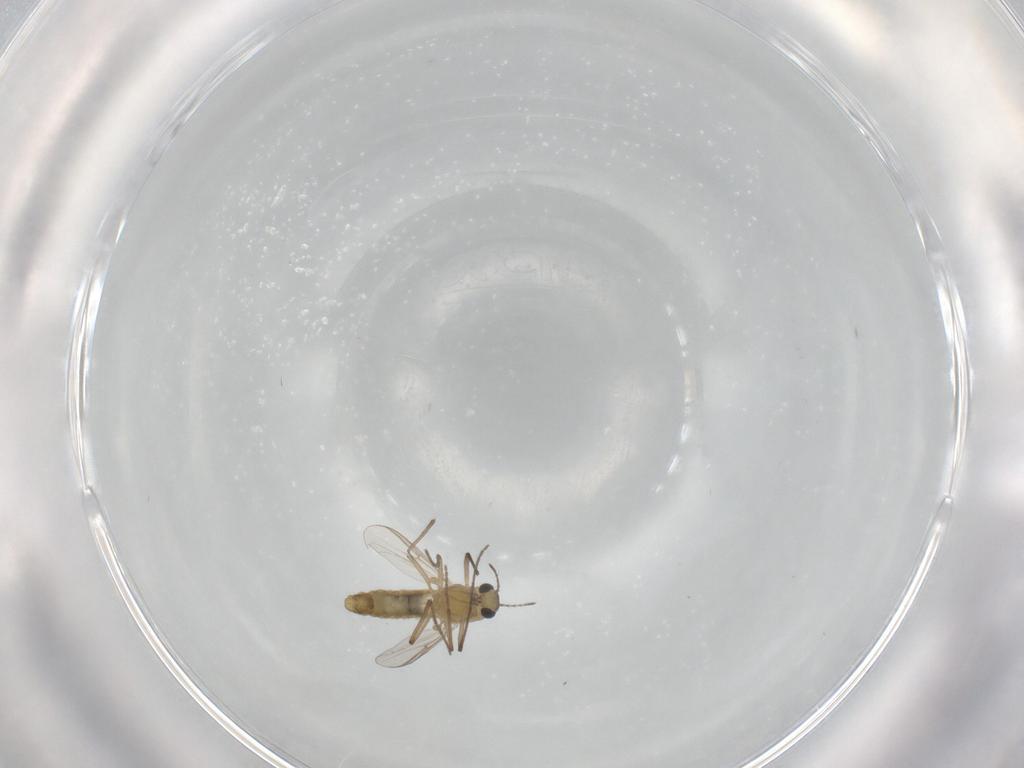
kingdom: Animalia
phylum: Arthropoda
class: Insecta
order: Diptera
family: Chironomidae
